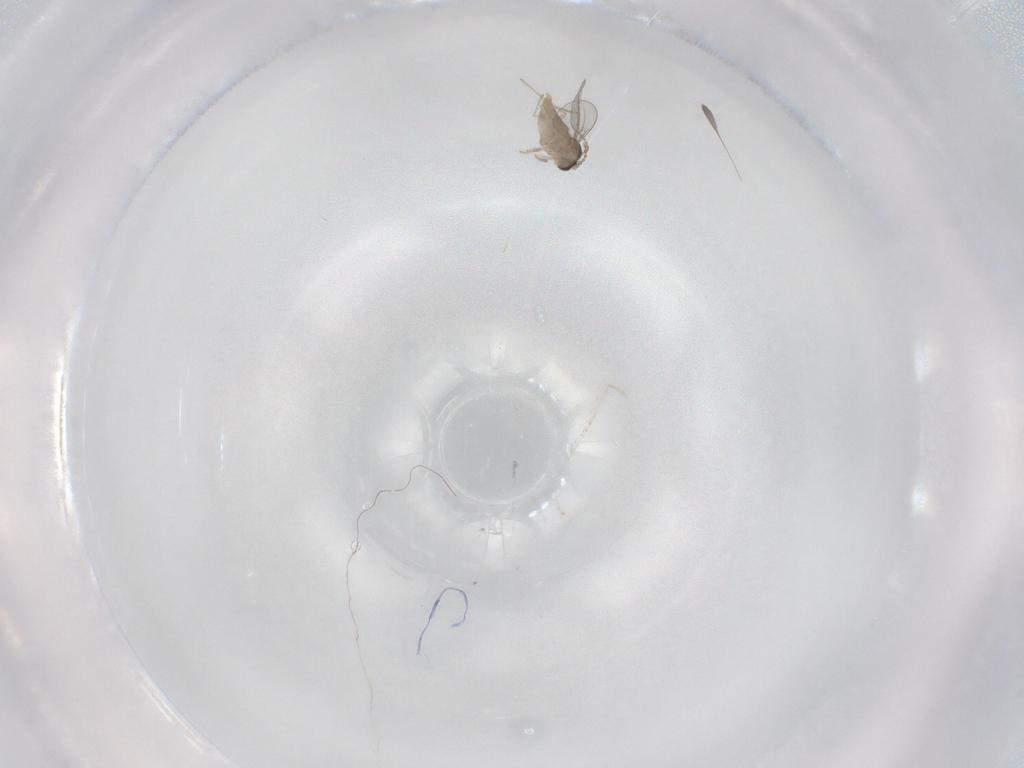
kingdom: Animalia
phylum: Arthropoda
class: Insecta
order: Diptera
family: Cecidomyiidae
